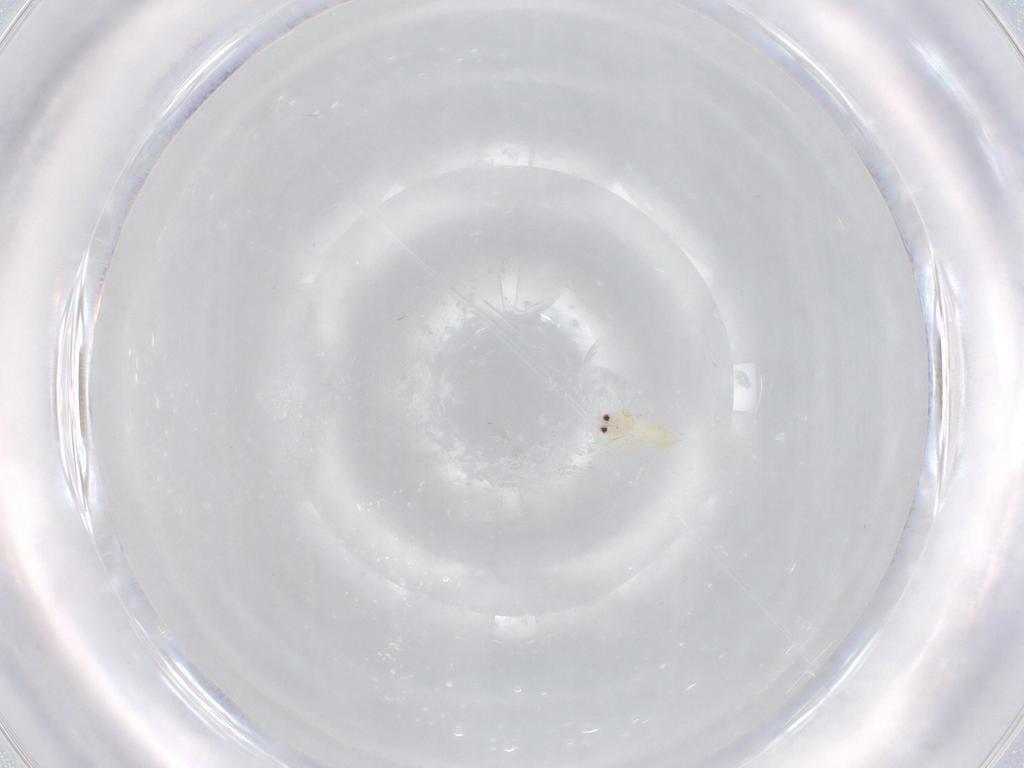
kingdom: Animalia
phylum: Arthropoda
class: Insecta
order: Hemiptera
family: Aleyrodidae
